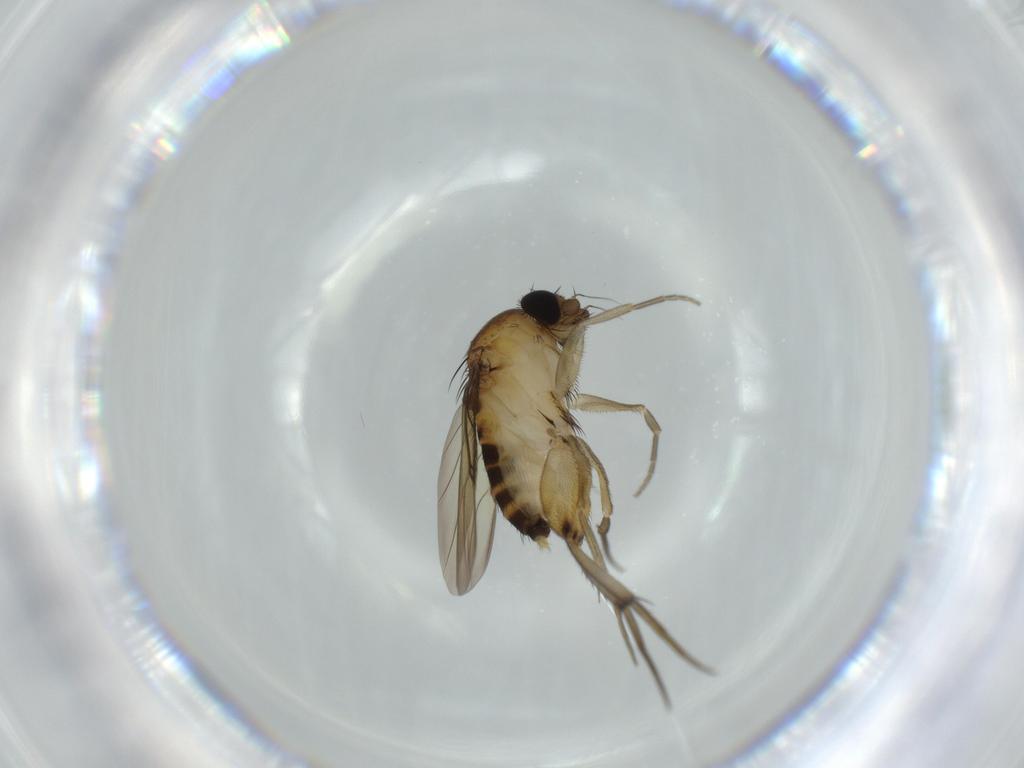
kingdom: Animalia
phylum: Arthropoda
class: Insecta
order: Diptera
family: Phoridae
